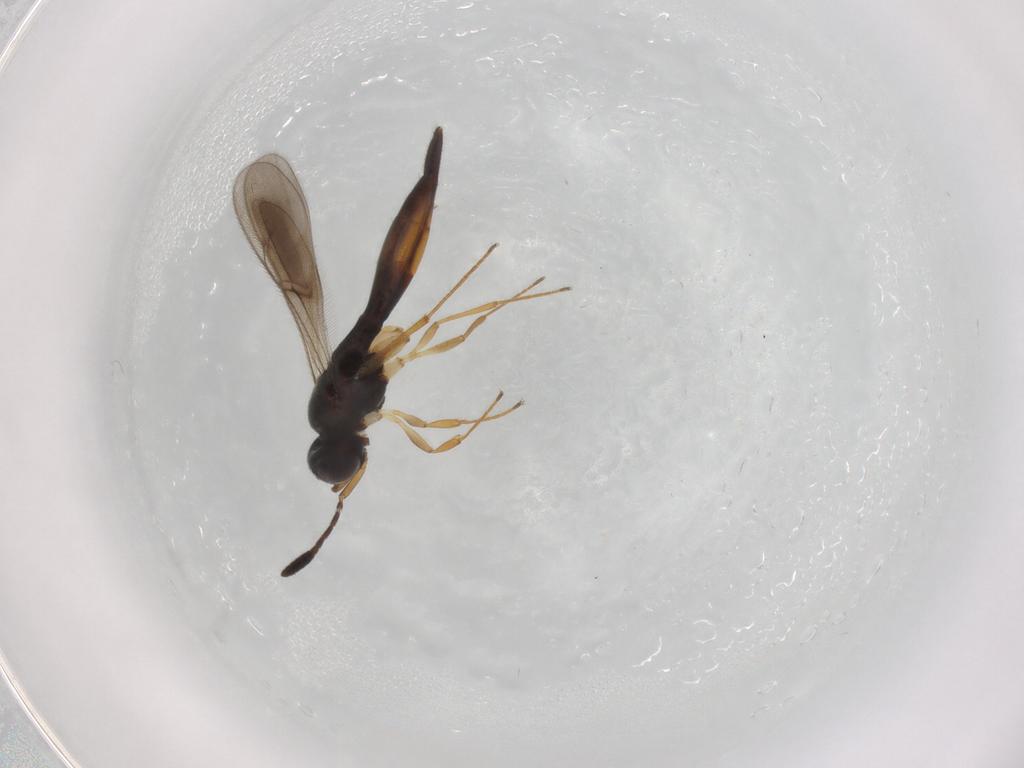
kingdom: Animalia
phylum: Arthropoda
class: Insecta
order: Hymenoptera
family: Scelionidae
